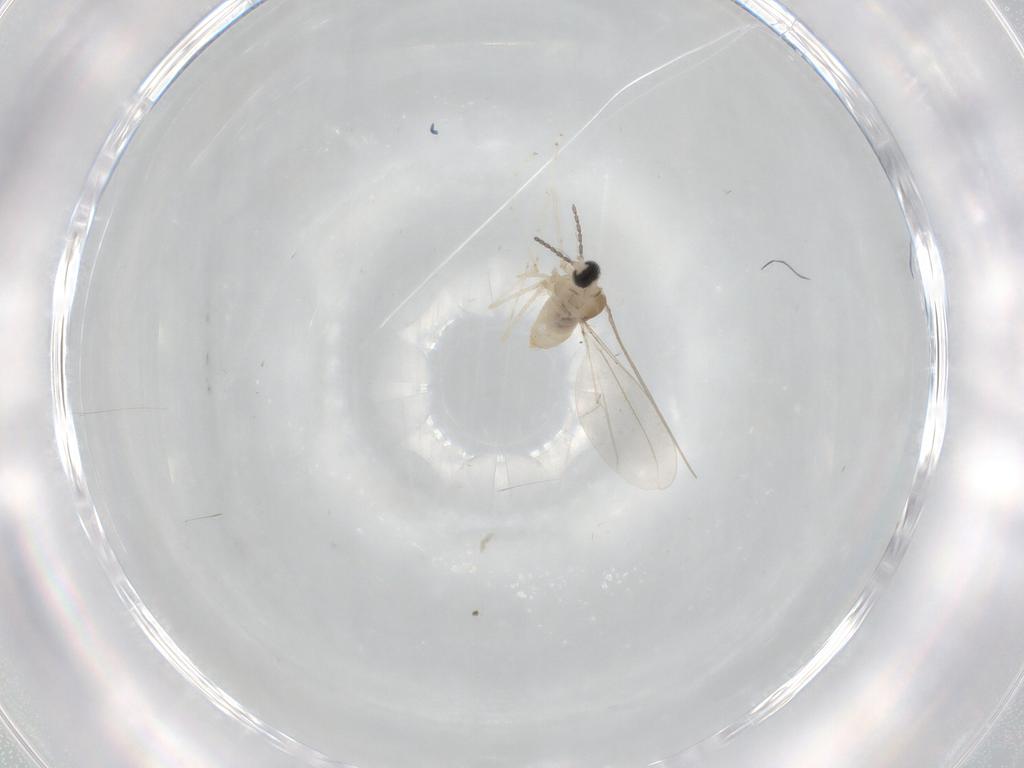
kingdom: Animalia
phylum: Arthropoda
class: Insecta
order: Diptera
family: Cecidomyiidae
